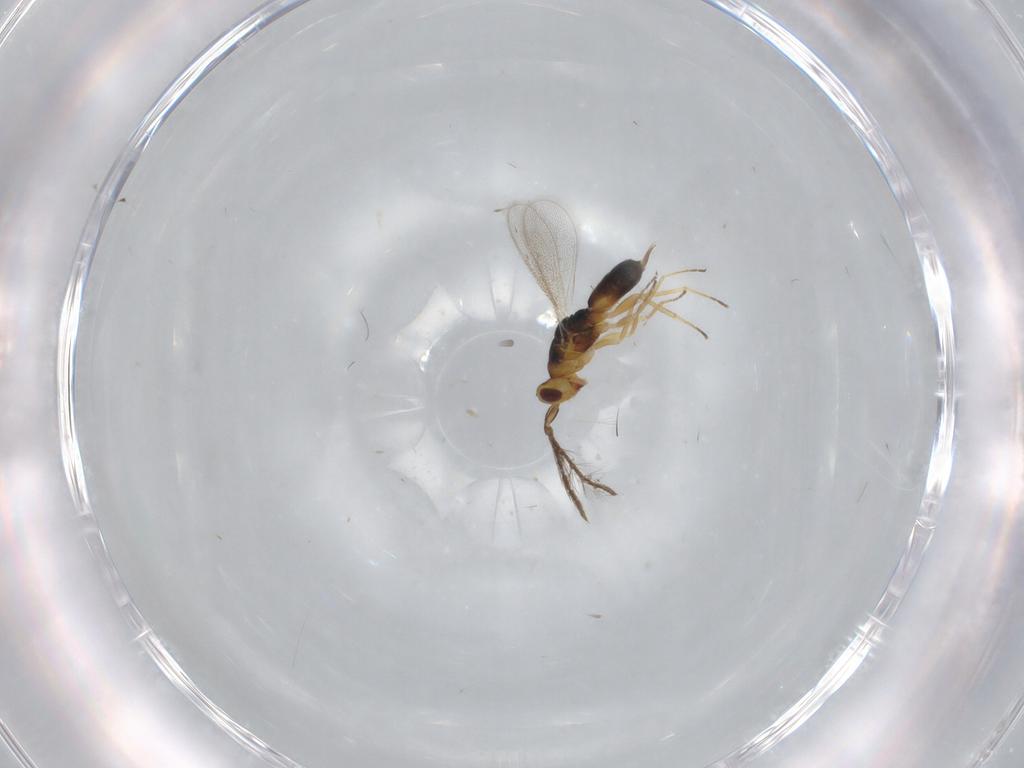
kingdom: Animalia
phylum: Arthropoda
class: Insecta
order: Hymenoptera
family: Eulophidae
